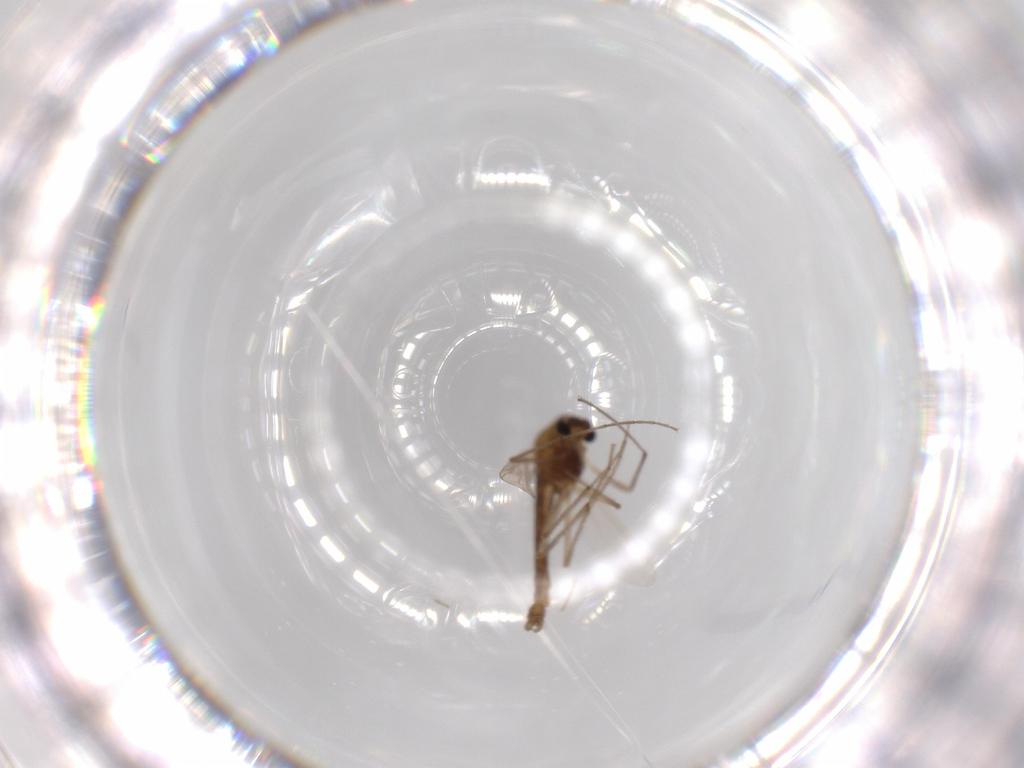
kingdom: Animalia
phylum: Arthropoda
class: Insecta
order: Diptera
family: Chironomidae
